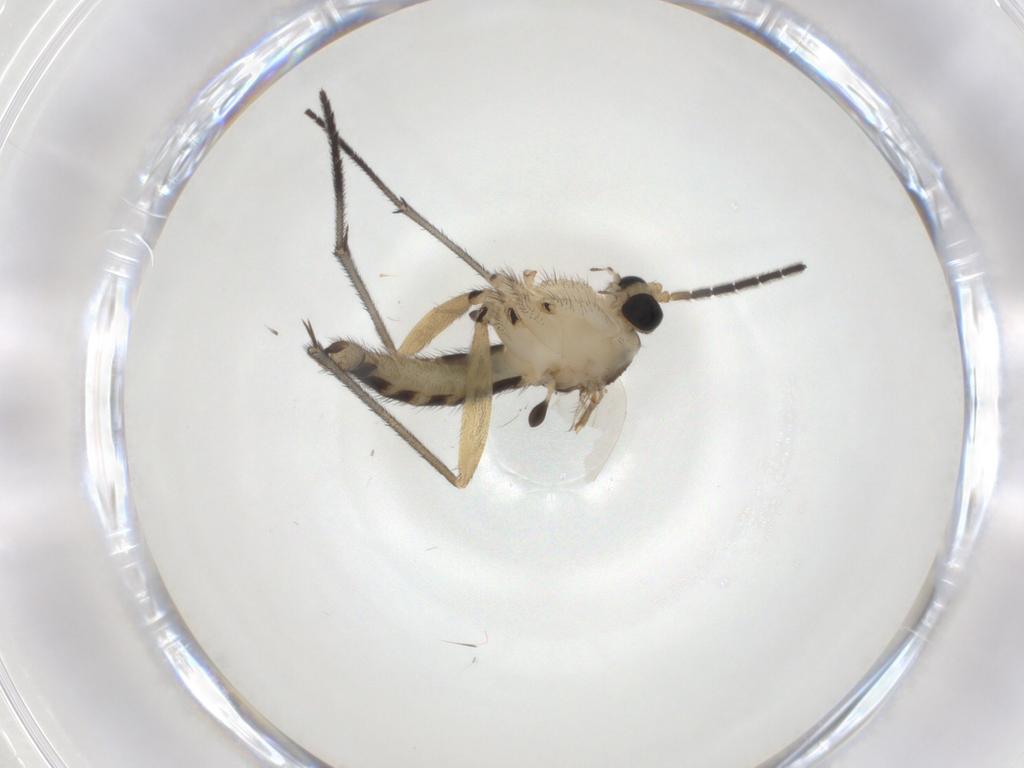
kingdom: Animalia
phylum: Arthropoda
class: Insecta
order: Diptera
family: Sciaridae
